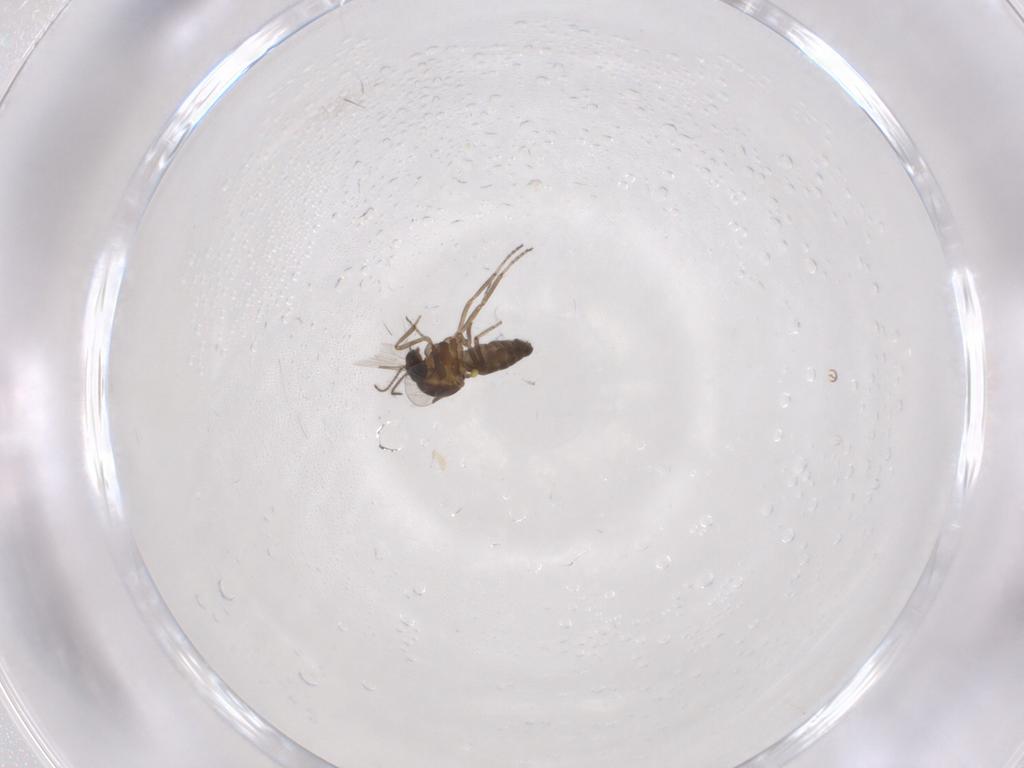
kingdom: Animalia
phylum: Arthropoda
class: Insecta
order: Diptera
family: Ceratopogonidae
